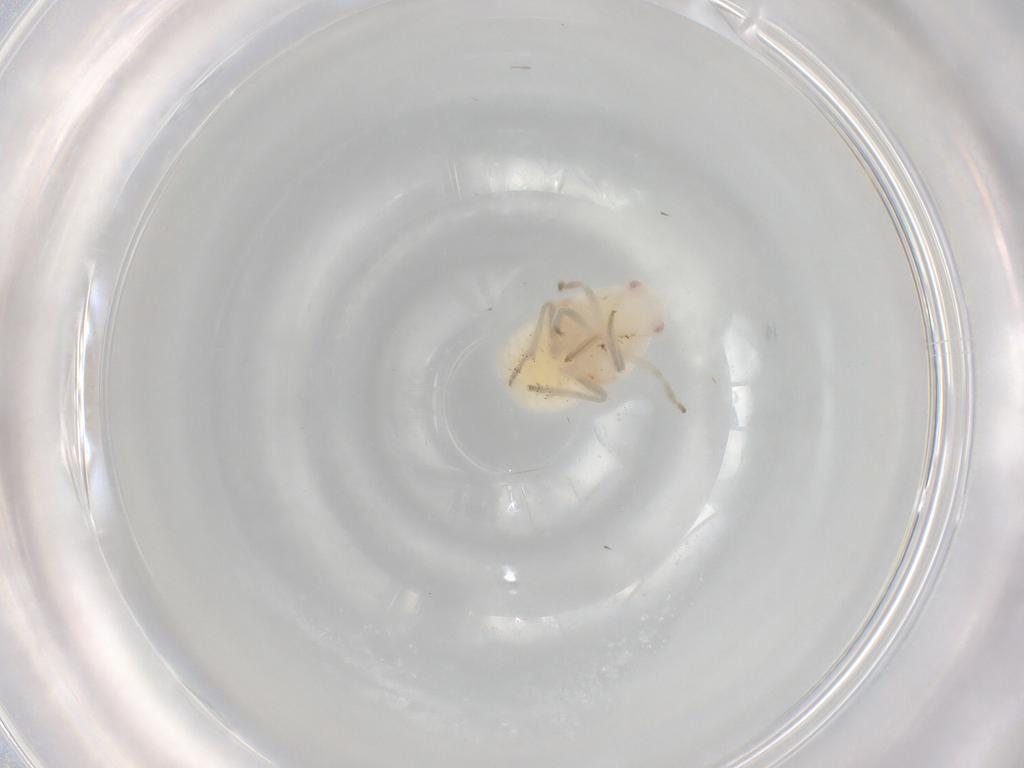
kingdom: Animalia
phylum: Arthropoda
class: Insecta
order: Hemiptera
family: Flatidae
